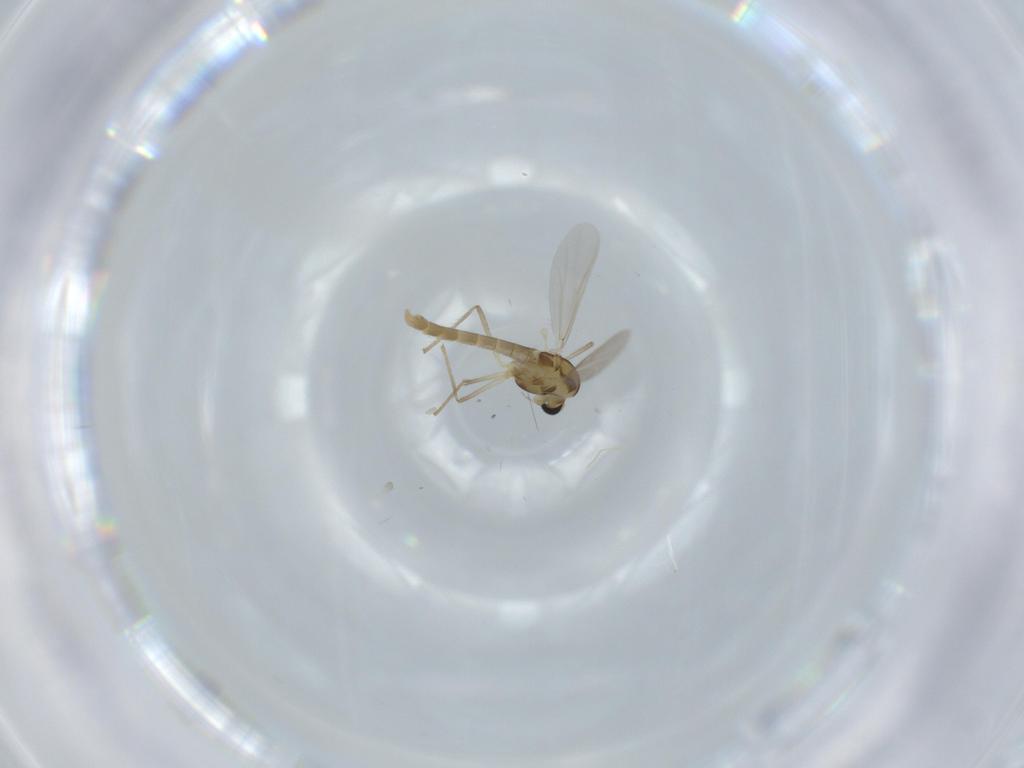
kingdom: Animalia
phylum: Arthropoda
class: Insecta
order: Diptera
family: Chironomidae
